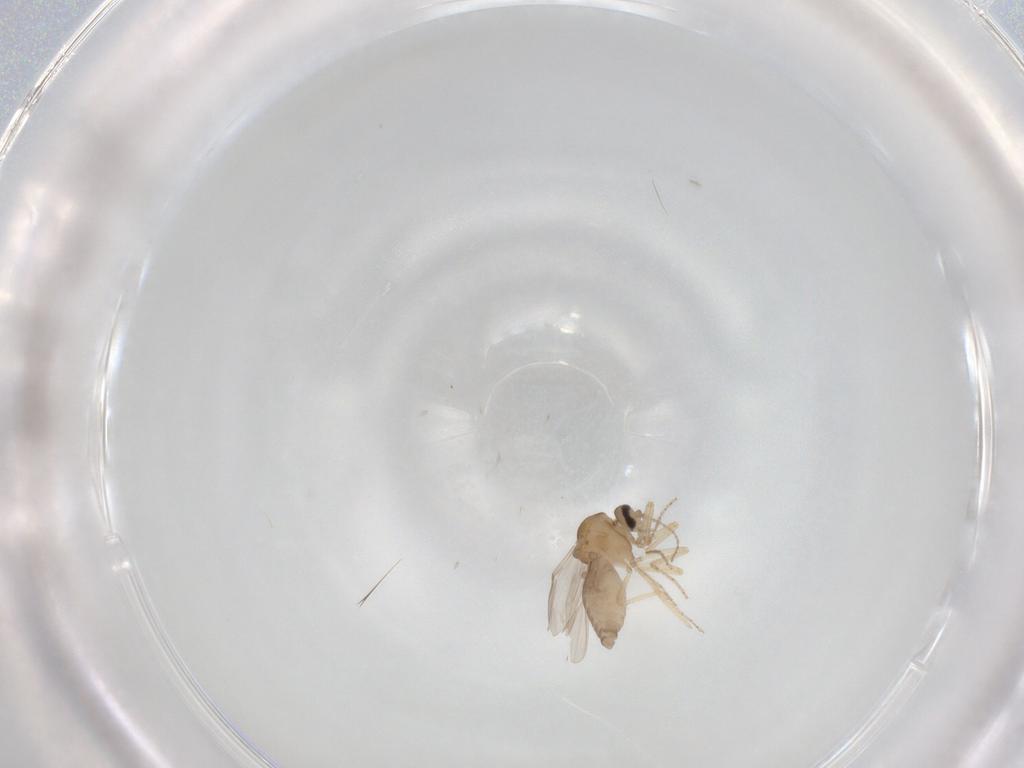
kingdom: Animalia
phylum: Arthropoda
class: Insecta
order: Diptera
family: Ceratopogonidae
